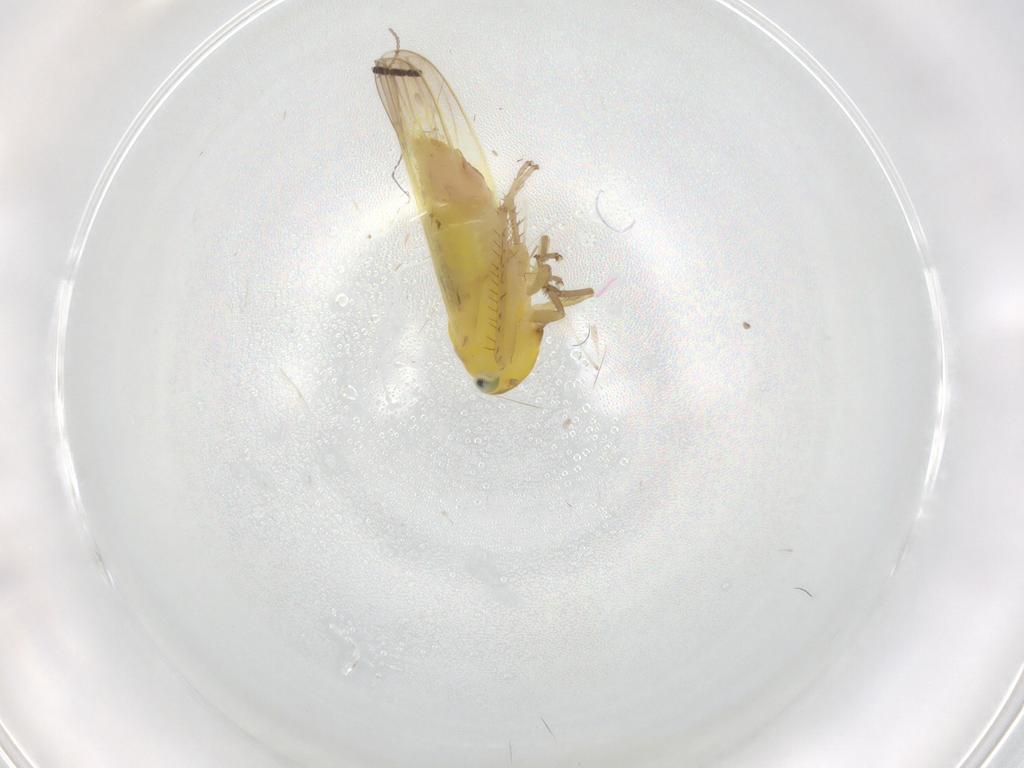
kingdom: Animalia
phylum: Arthropoda
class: Insecta
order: Hemiptera
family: Cicadellidae
